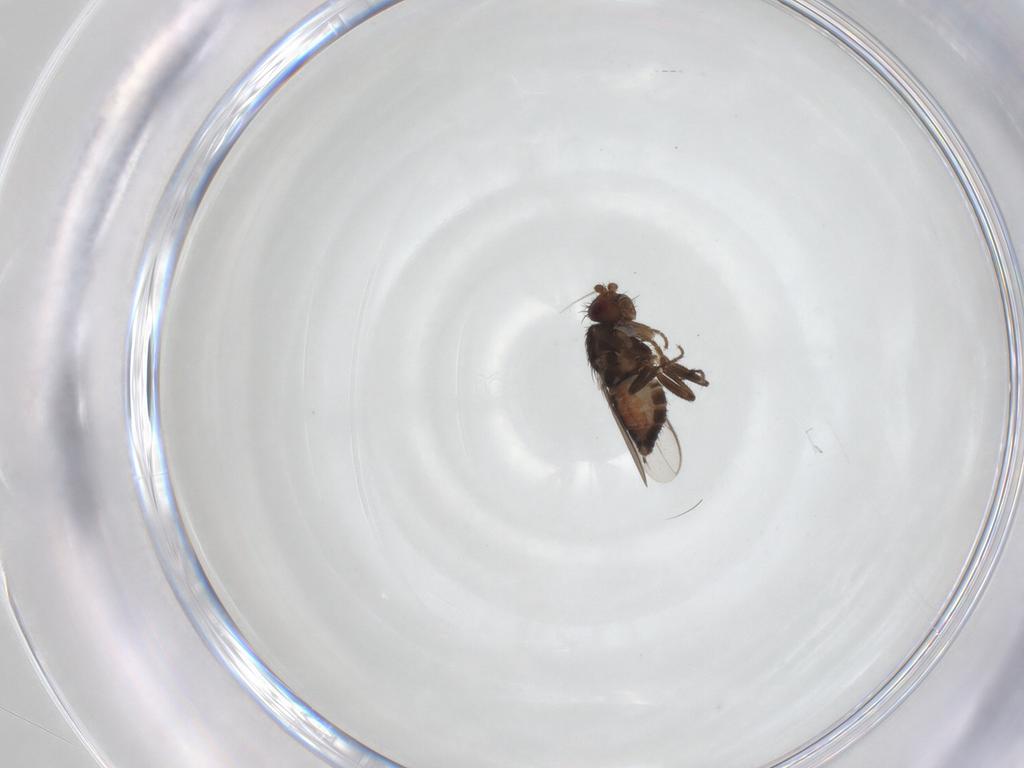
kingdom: Animalia
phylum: Arthropoda
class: Insecta
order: Diptera
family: Sphaeroceridae
